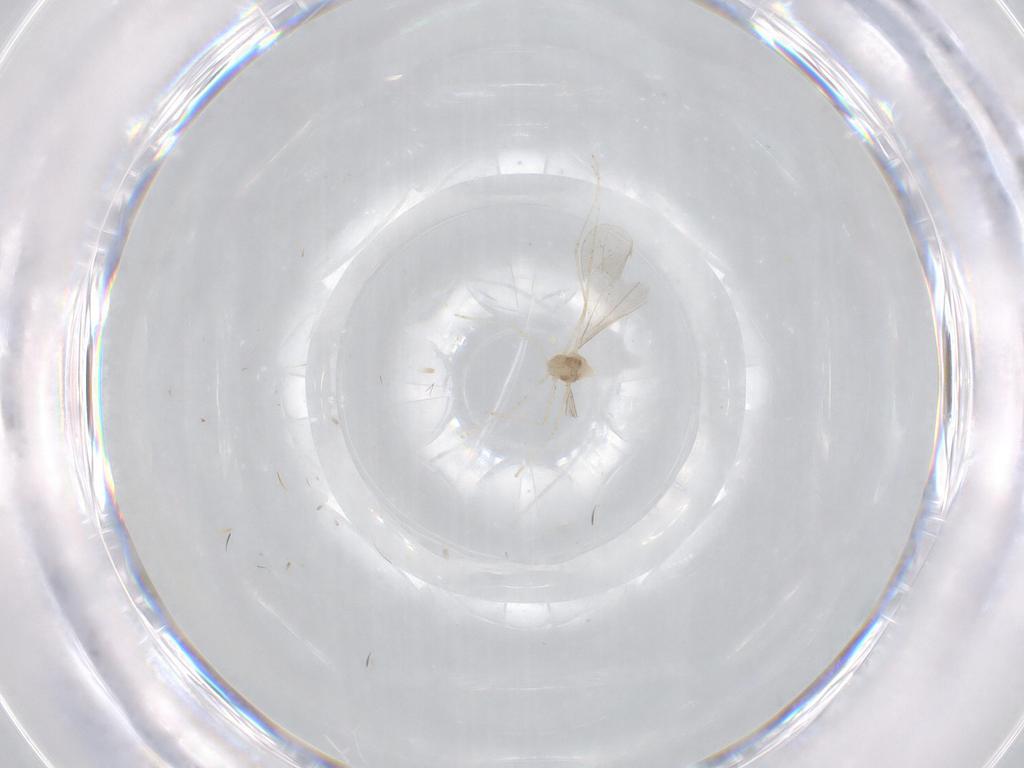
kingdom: Animalia
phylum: Arthropoda
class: Insecta
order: Diptera
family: Cecidomyiidae
